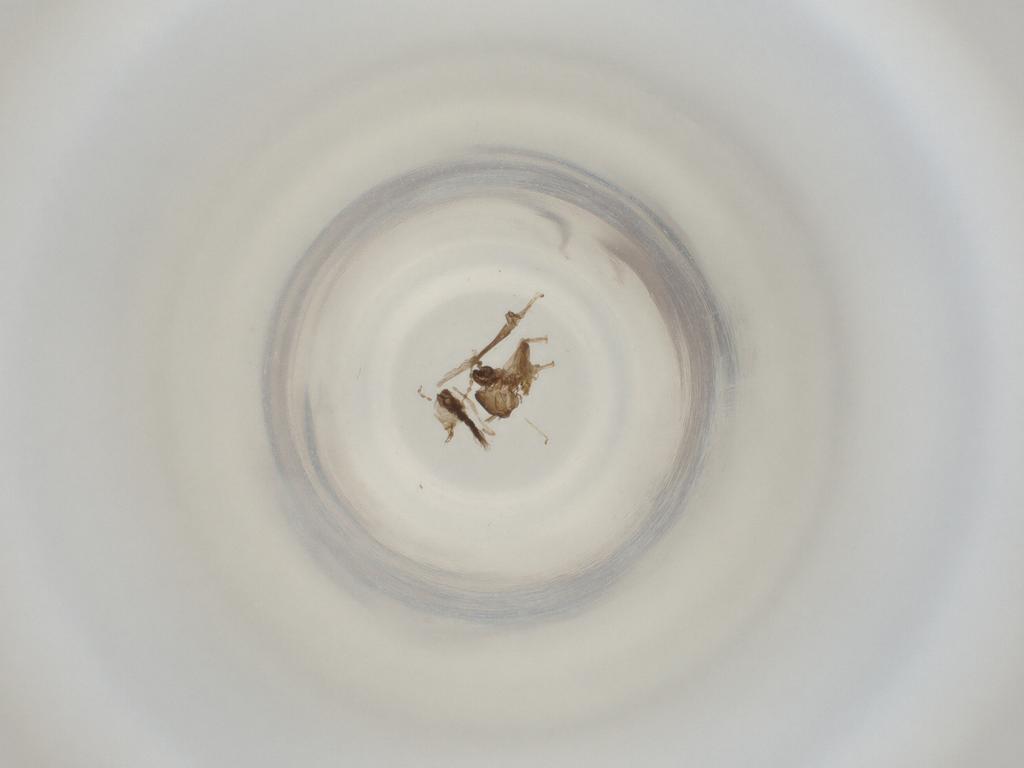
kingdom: Animalia
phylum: Arthropoda
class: Insecta
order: Diptera
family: Cecidomyiidae
